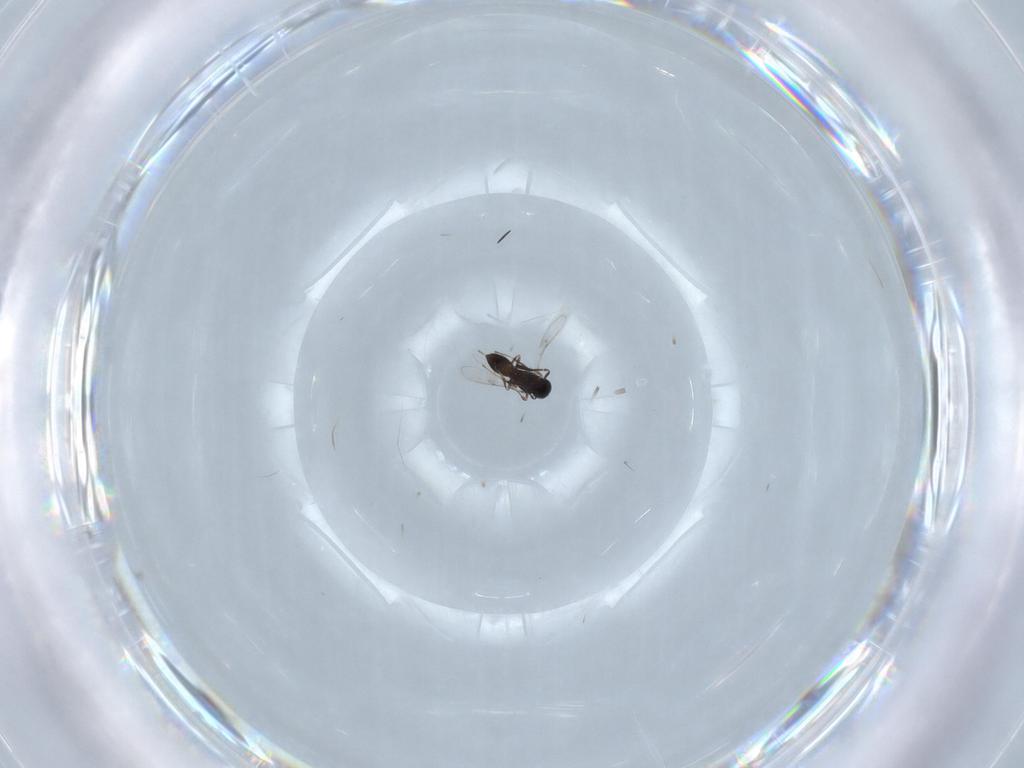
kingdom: Animalia
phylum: Arthropoda
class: Insecta
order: Hymenoptera
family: Scelionidae
